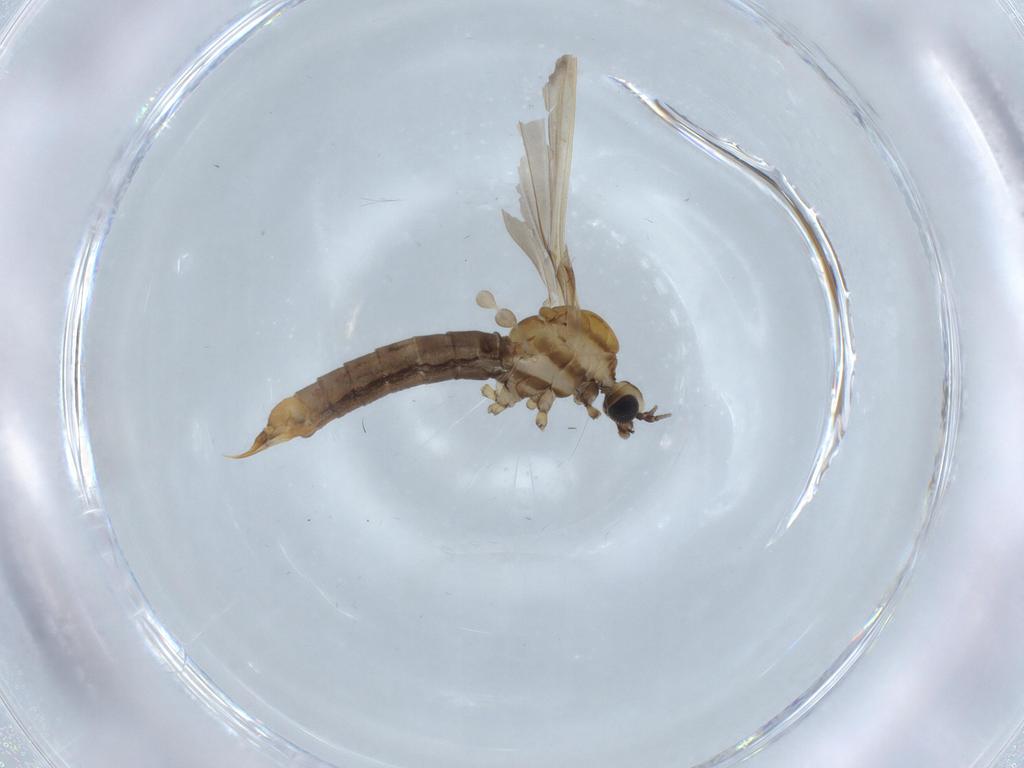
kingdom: Animalia
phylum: Arthropoda
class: Insecta
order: Diptera
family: Limoniidae
